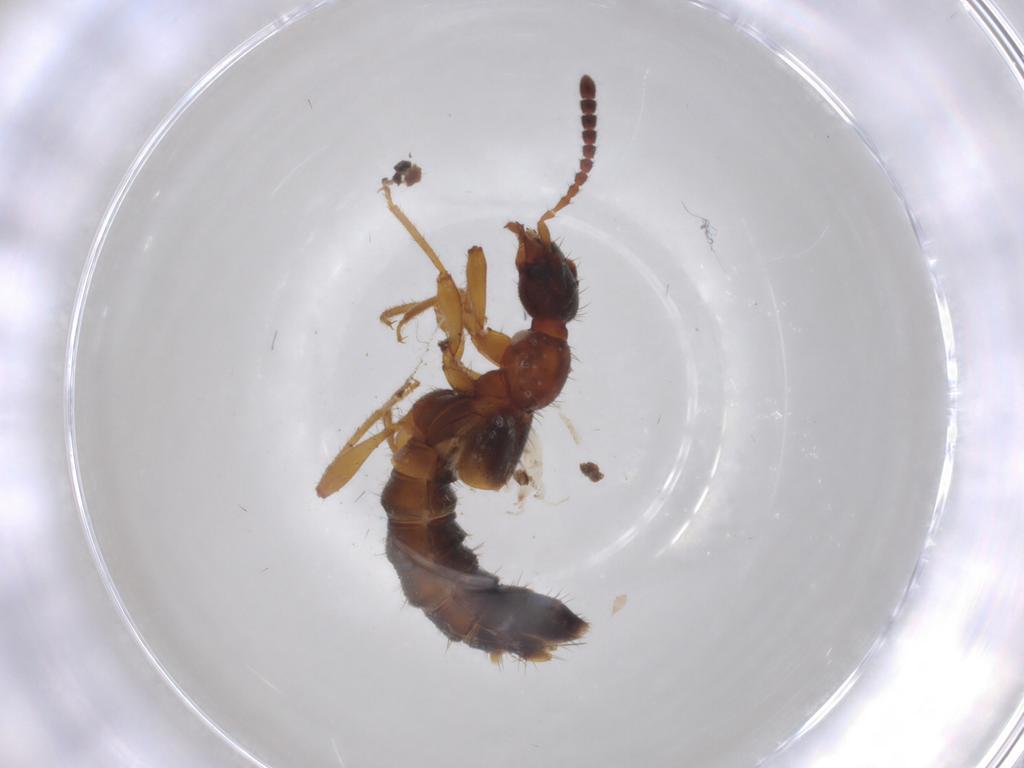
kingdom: Animalia
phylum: Arthropoda
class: Insecta
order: Coleoptera
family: Staphylinidae
